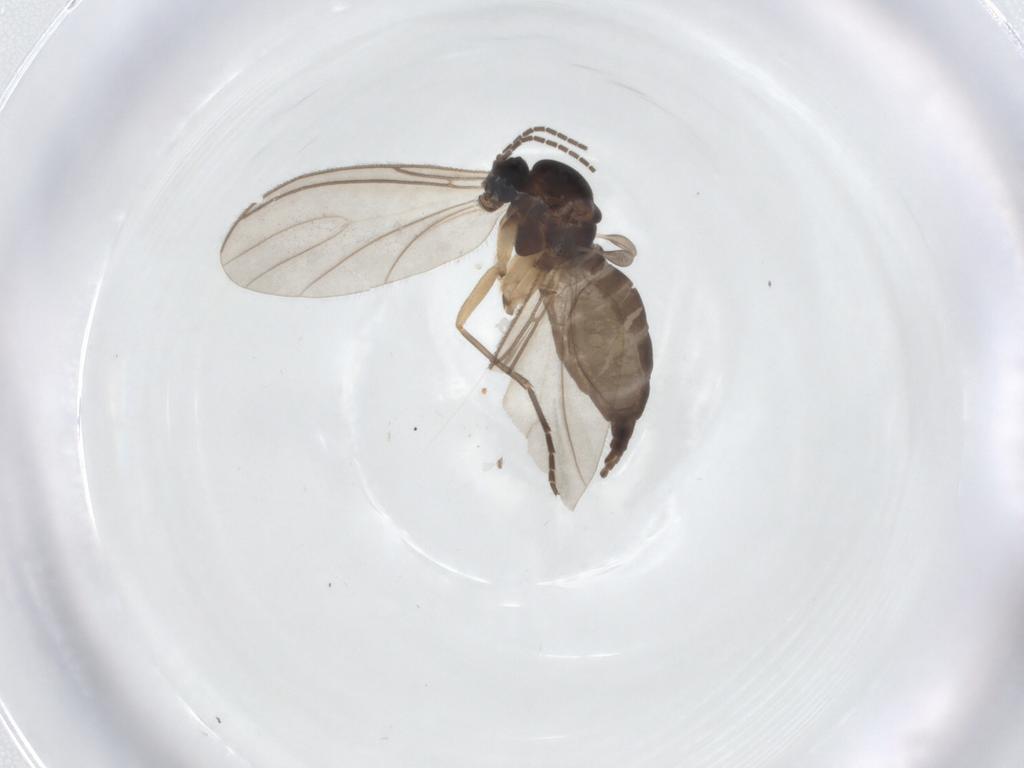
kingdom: Animalia
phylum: Arthropoda
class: Insecta
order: Diptera
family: Sciaridae
